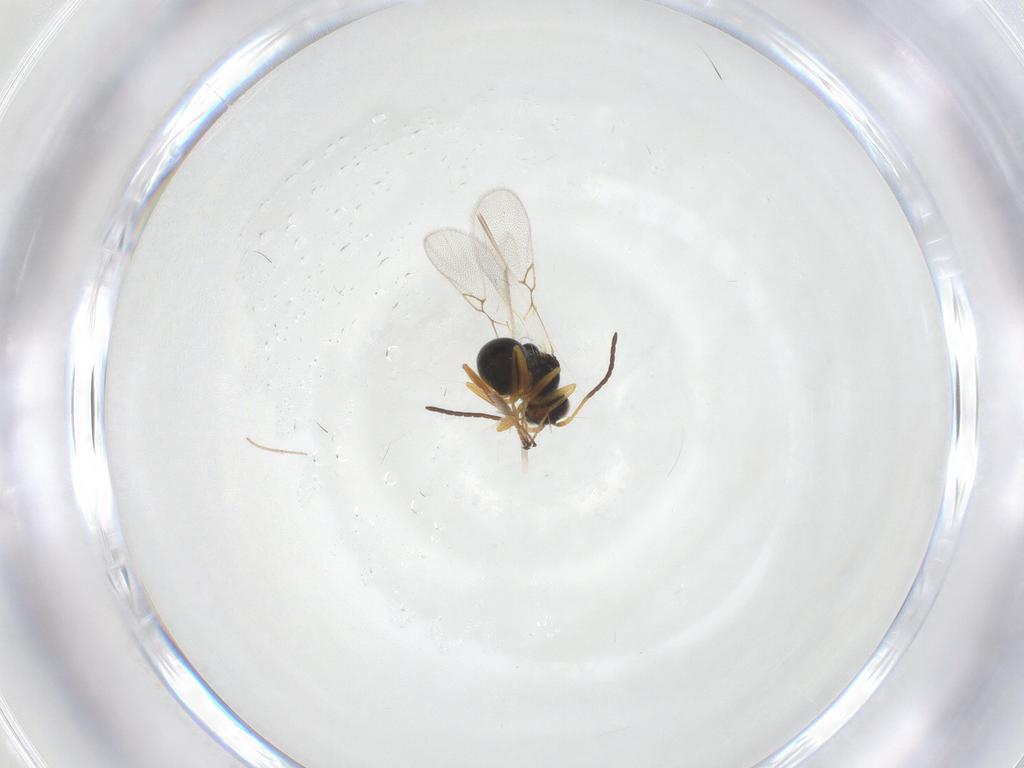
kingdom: Animalia
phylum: Arthropoda
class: Insecta
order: Hymenoptera
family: Figitidae
